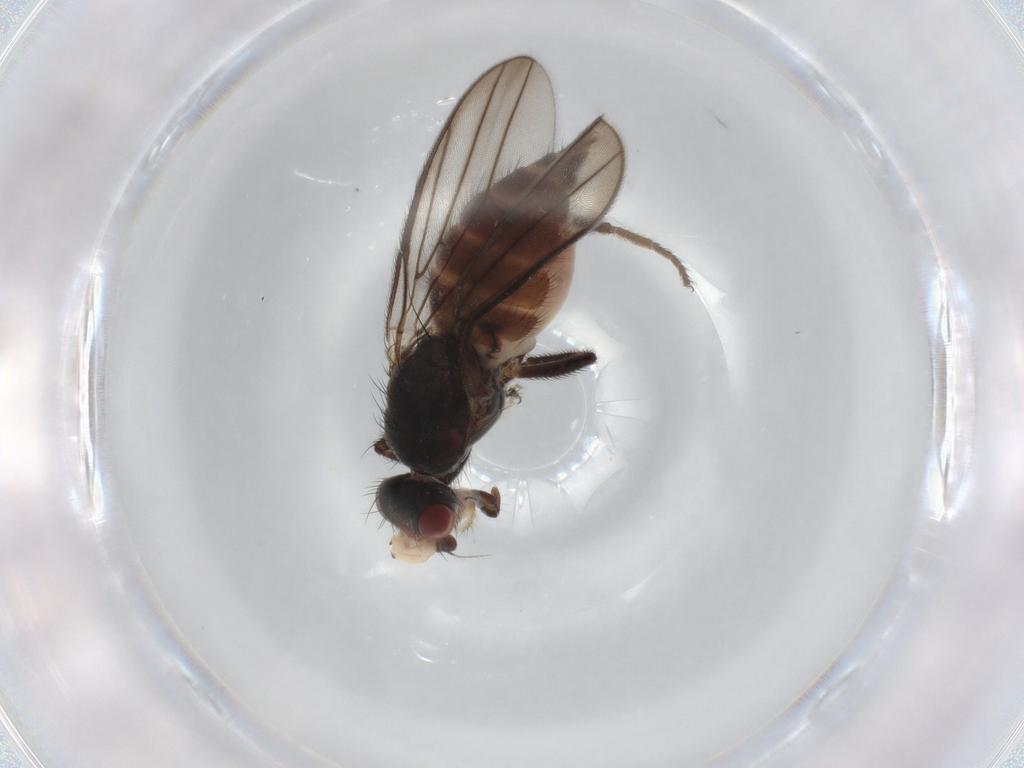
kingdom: Animalia
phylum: Arthropoda
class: Insecta
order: Diptera
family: Chloropidae
